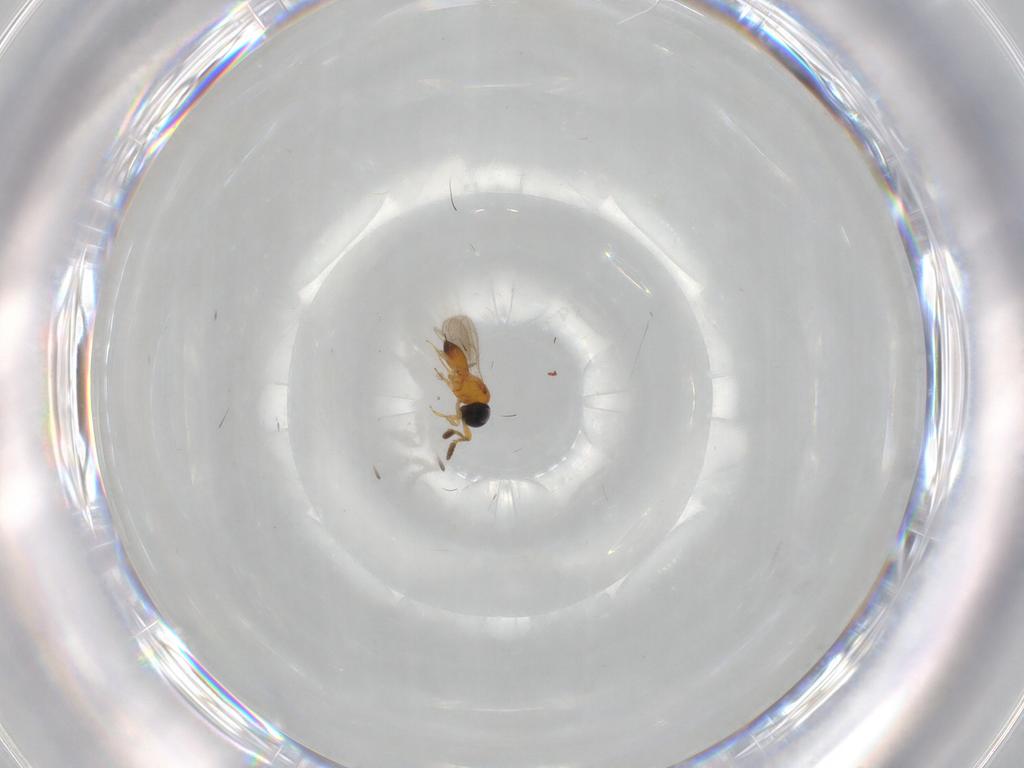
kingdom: Animalia
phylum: Arthropoda
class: Insecta
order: Hymenoptera
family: Scelionidae
